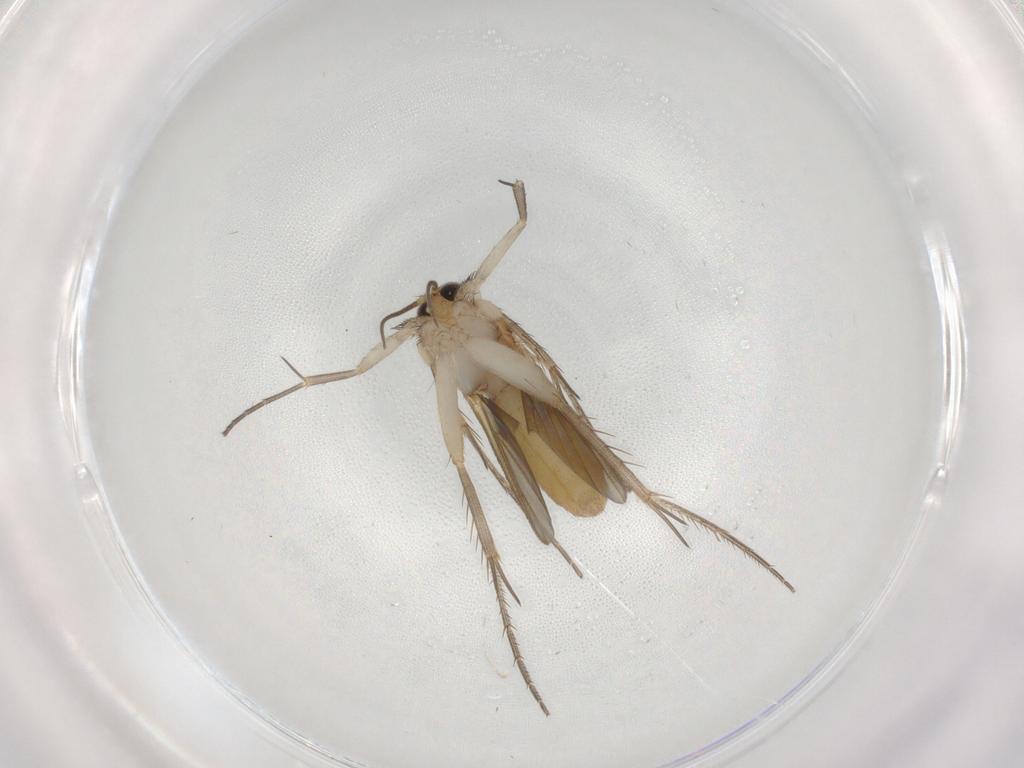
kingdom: Animalia
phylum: Arthropoda
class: Insecta
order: Diptera
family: Mycetophilidae
